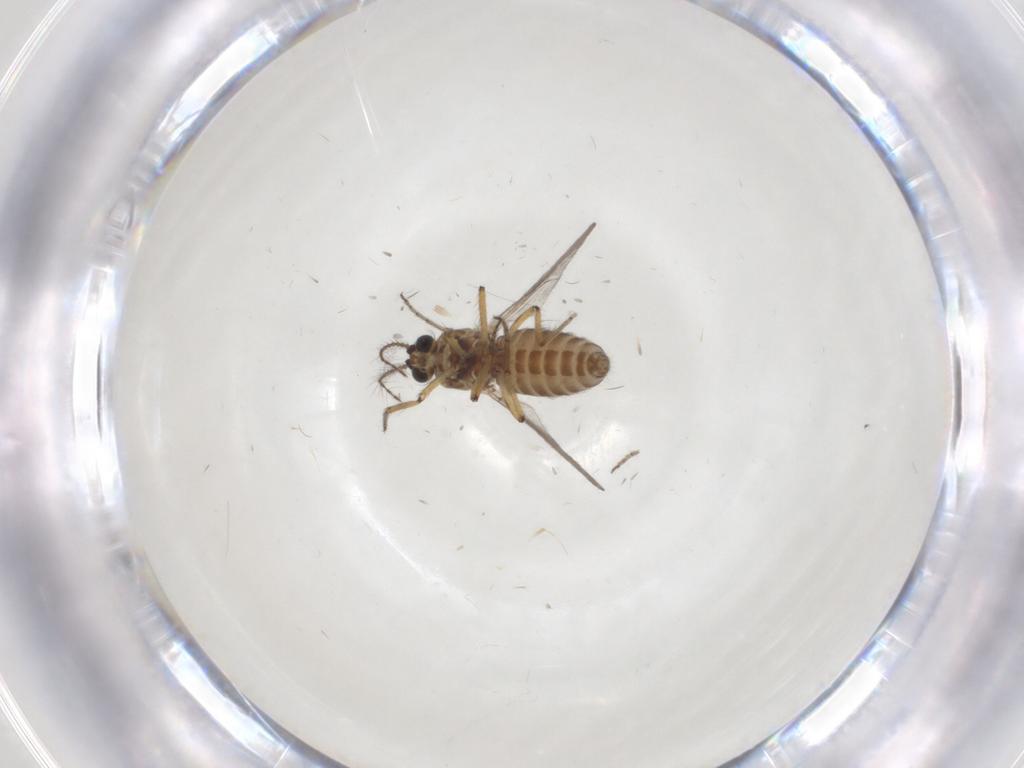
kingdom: Animalia
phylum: Arthropoda
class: Insecta
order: Diptera
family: Ceratopogonidae
